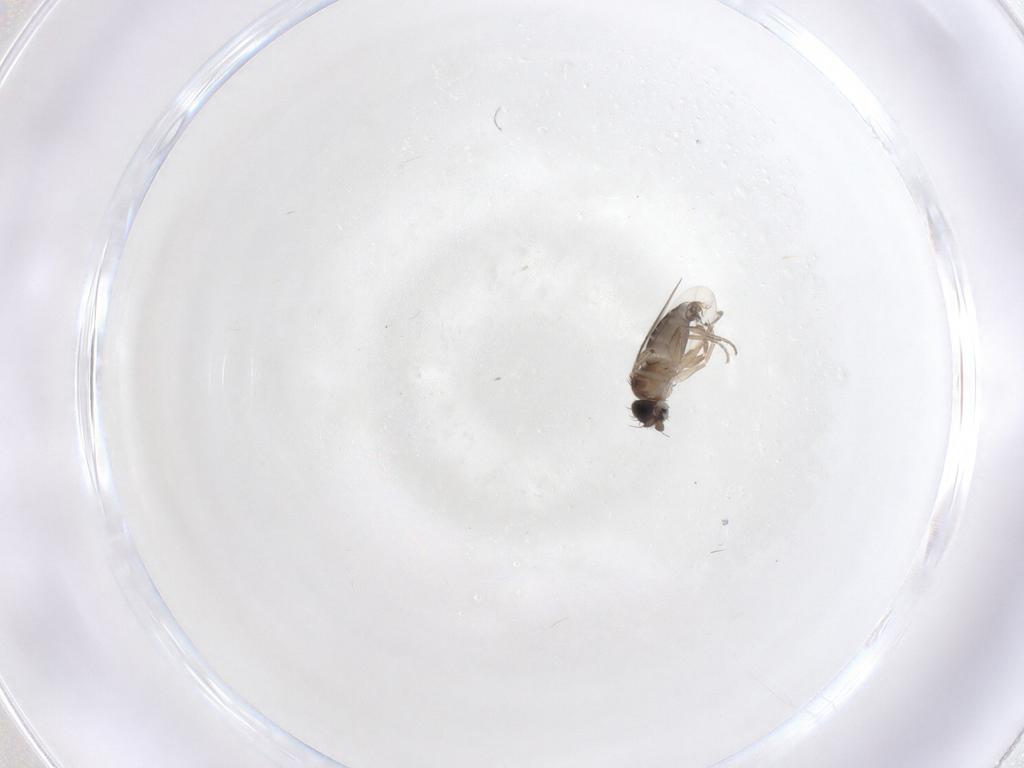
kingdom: Animalia
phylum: Arthropoda
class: Insecta
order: Diptera
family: Phoridae
